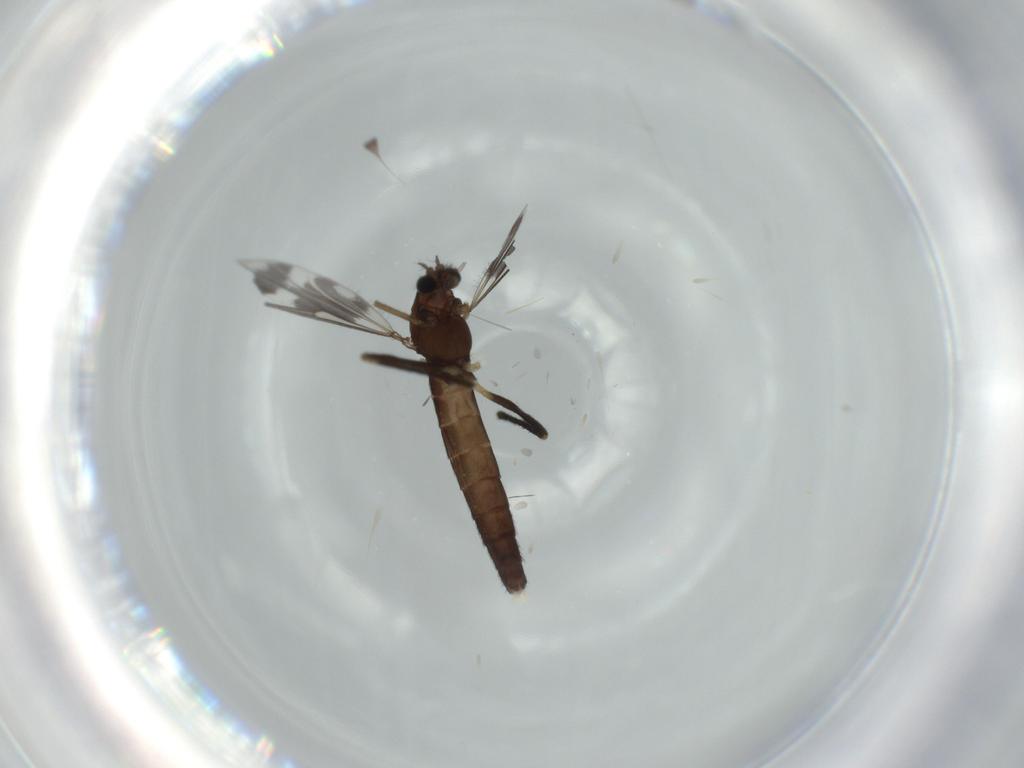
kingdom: Animalia
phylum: Arthropoda
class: Insecta
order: Diptera
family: Chironomidae
